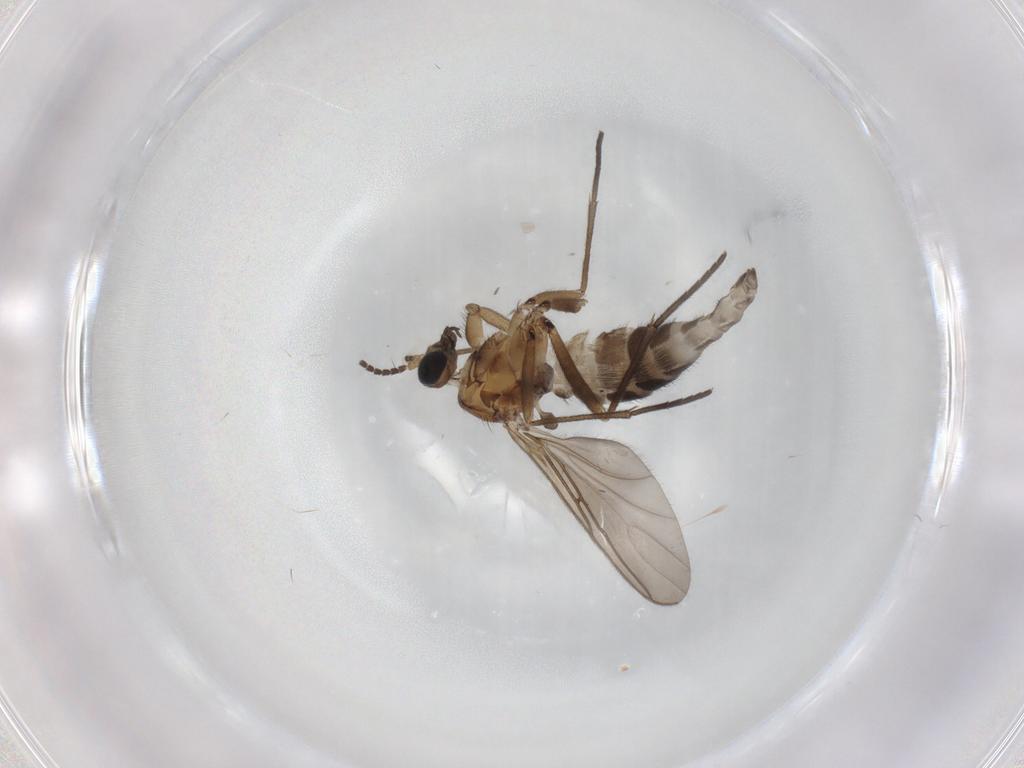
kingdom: Animalia
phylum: Arthropoda
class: Insecta
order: Diptera
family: Sciaridae
